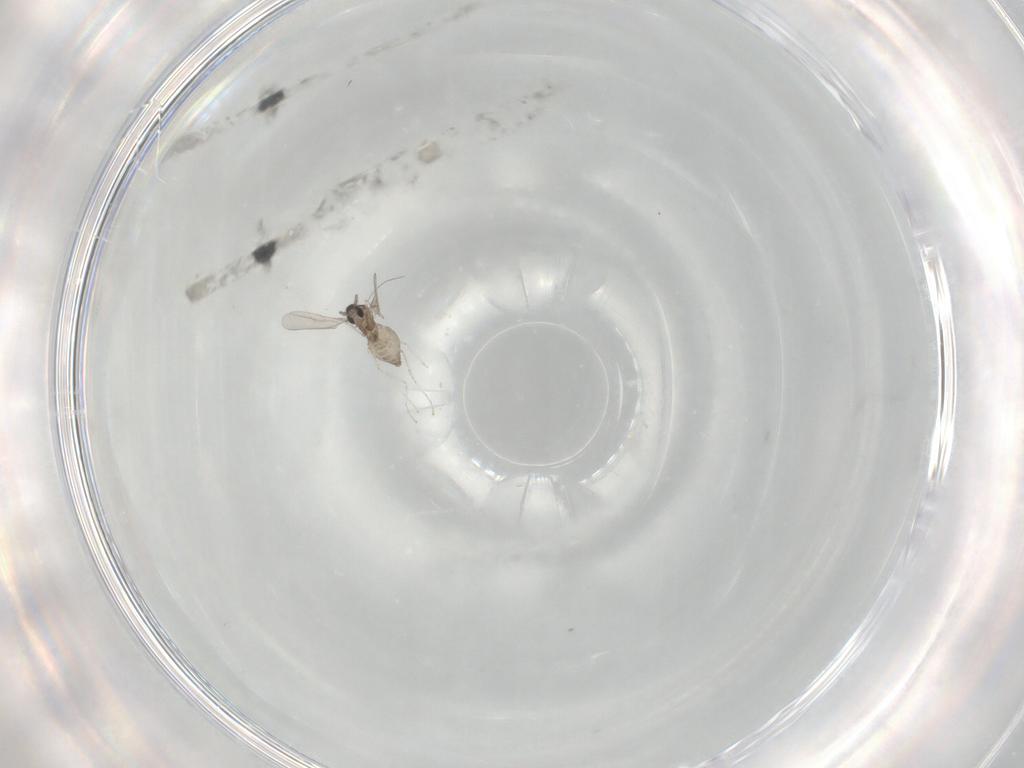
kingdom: Animalia
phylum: Arthropoda
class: Insecta
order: Diptera
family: Cecidomyiidae
